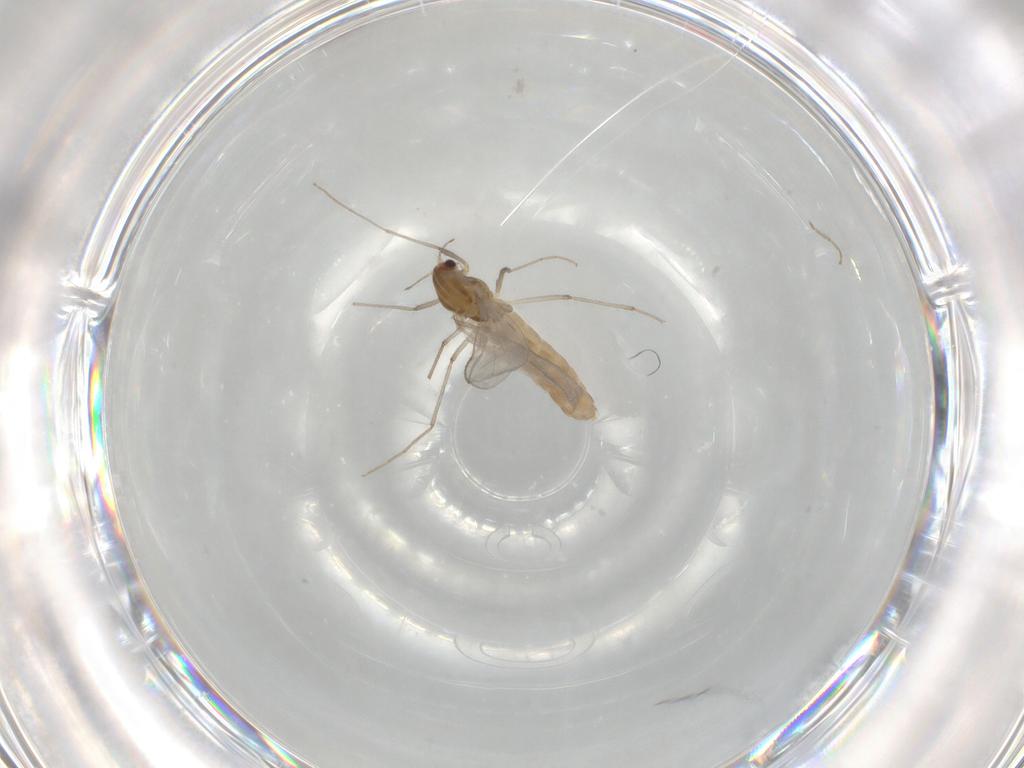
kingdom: Animalia
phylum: Arthropoda
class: Insecta
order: Diptera
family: Chironomidae
